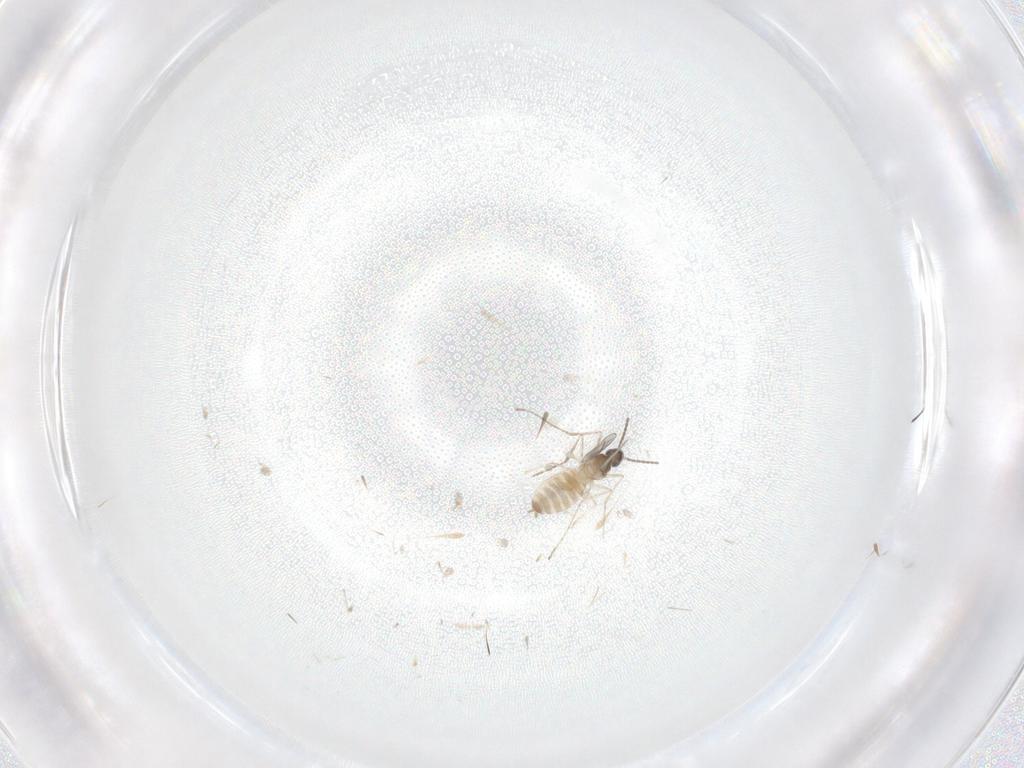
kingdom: Animalia
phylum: Arthropoda
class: Insecta
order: Diptera
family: Cecidomyiidae
